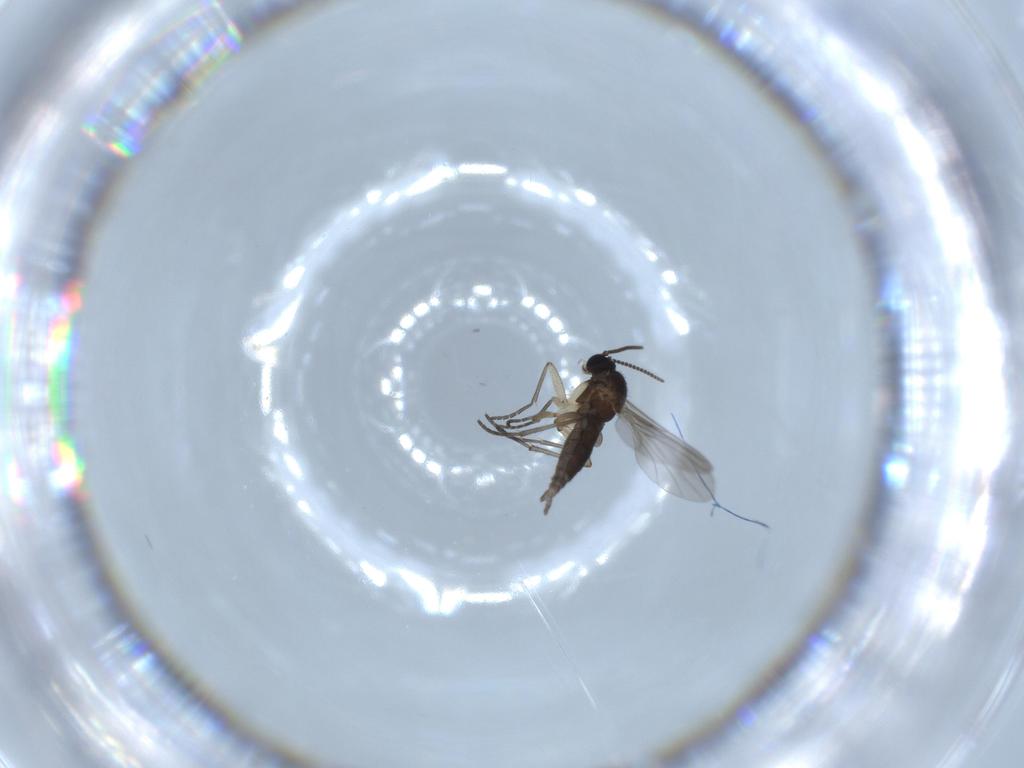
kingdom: Animalia
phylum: Arthropoda
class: Insecta
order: Diptera
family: Sciaridae
